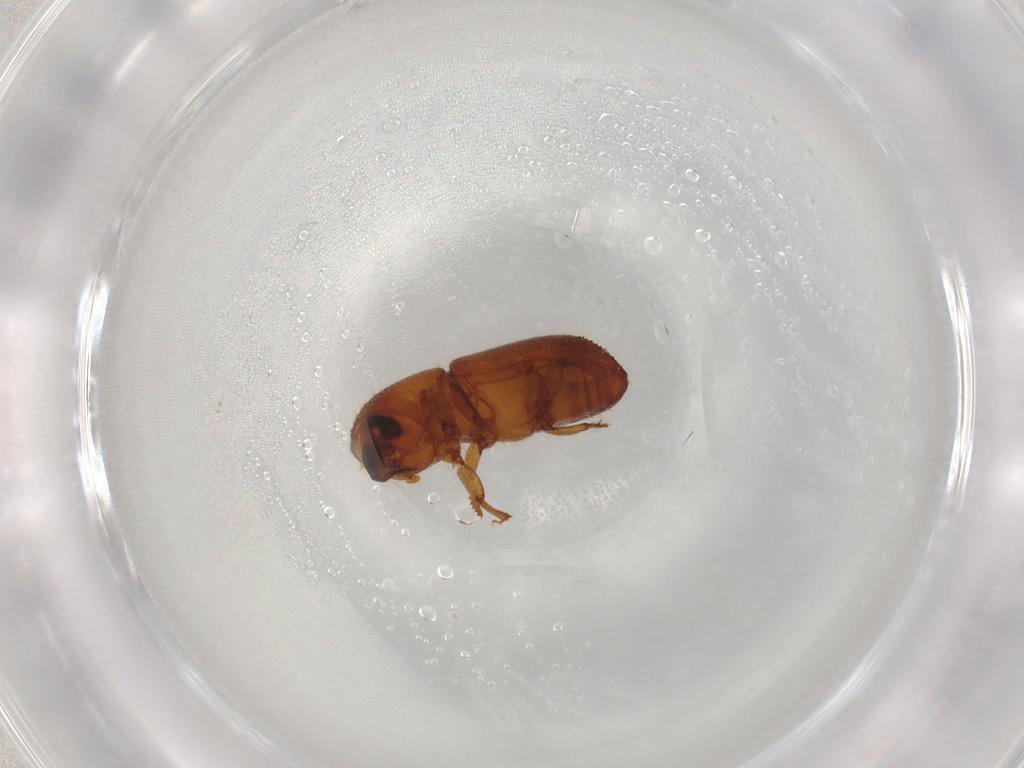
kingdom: Animalia
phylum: Arthropoda
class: Insecta
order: Coleoptera
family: Curculionidae
